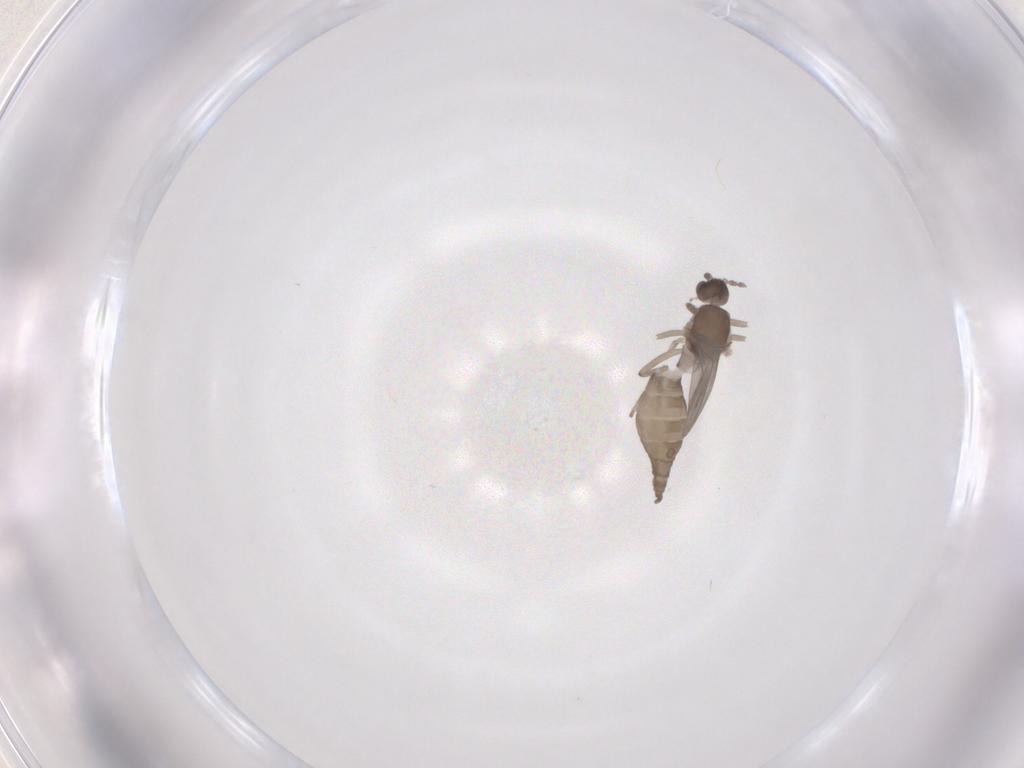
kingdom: Animalia
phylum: Arthropoda
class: Insecta
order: Diptera
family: Cecidomyiidae
